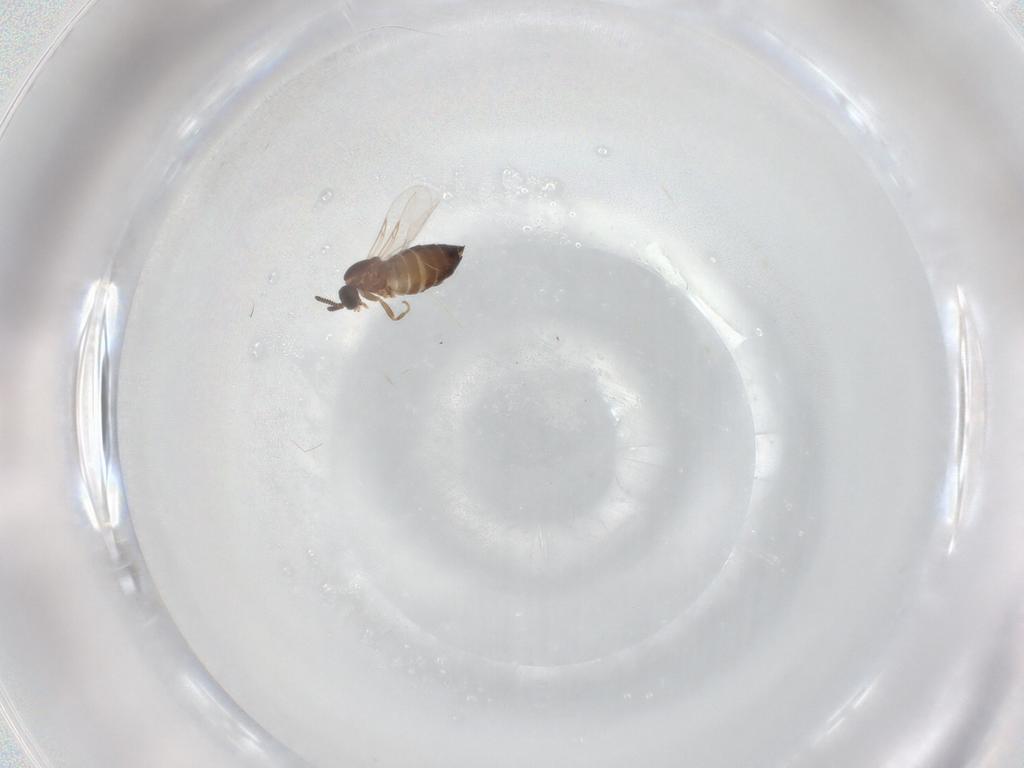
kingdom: Animalia
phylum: Arthropoda
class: Insecta
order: Diptera
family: Scatopsidae
